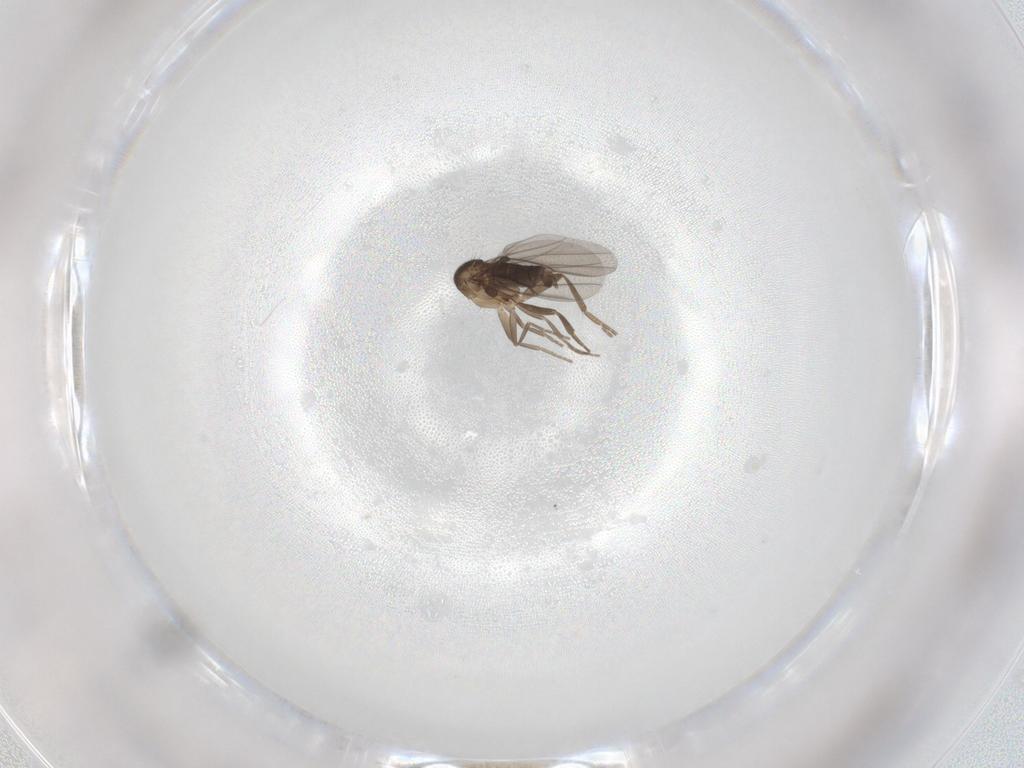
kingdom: Animalia
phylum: Arthropoda
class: Insecta
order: Diptera
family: Cecidomyiidae
